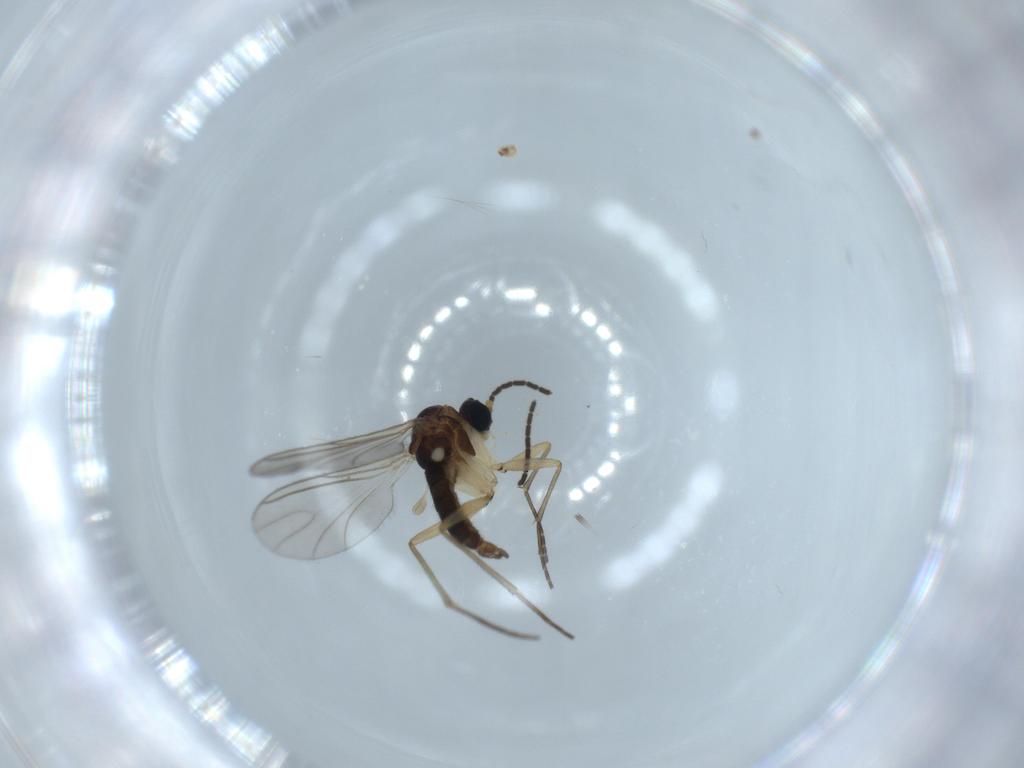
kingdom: Animalia
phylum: Arthropoda
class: Insecta
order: Diptera
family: Sciaridae
